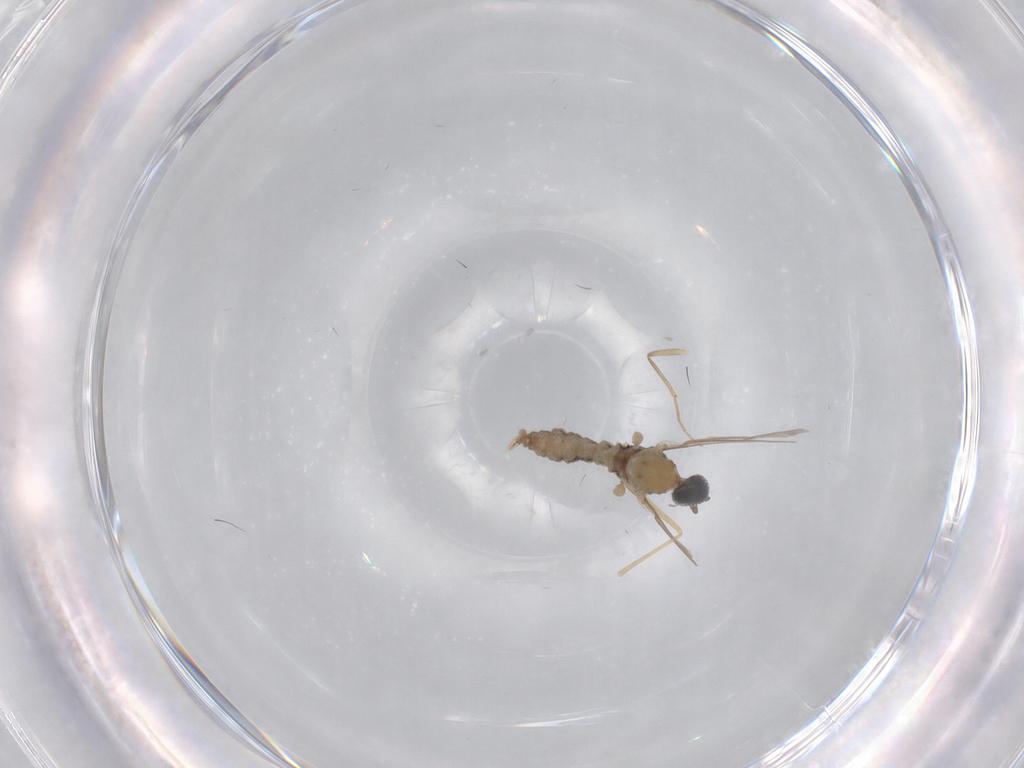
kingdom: Animalia
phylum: Arthropoda
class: Insecta
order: Diptera
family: Cecidomyiidae
